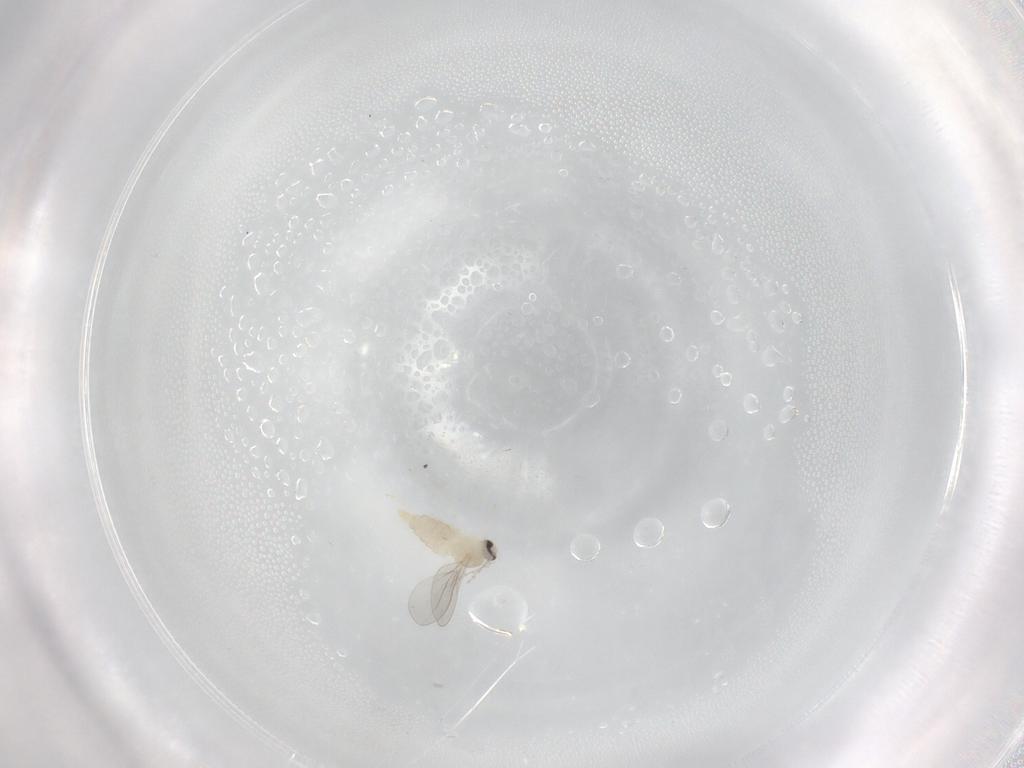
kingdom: Animalia
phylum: Arthropoda
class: Insecta
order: Diptera
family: Cecidomyiidae
